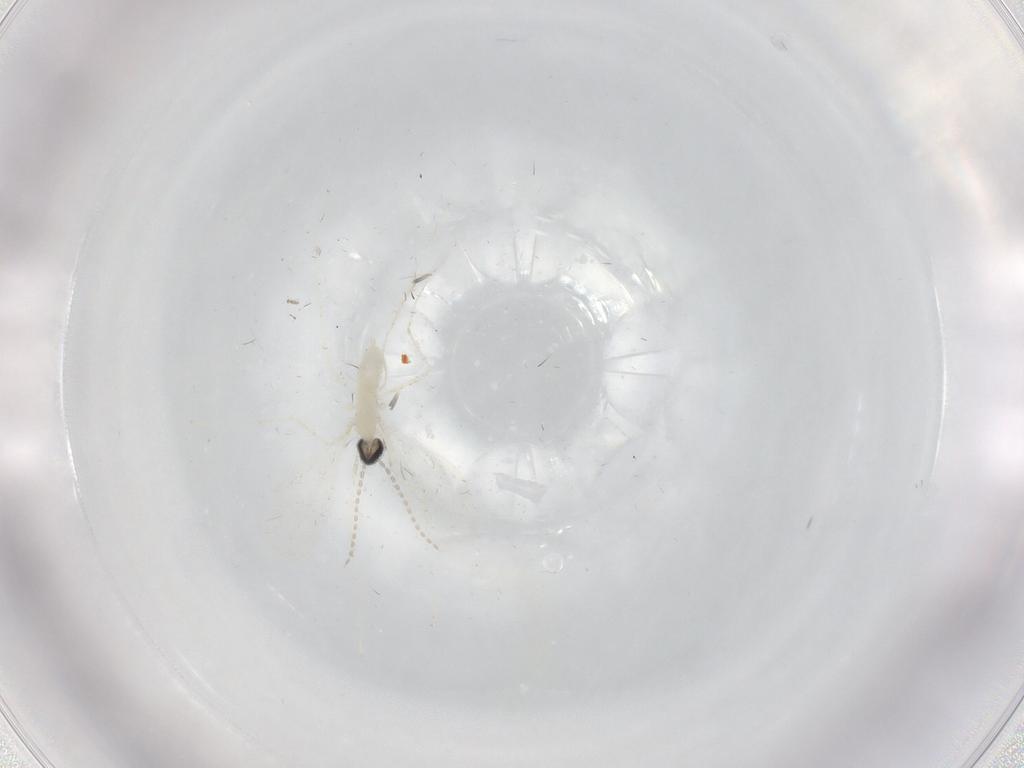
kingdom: Animalia
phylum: Arthropoda
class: Insecta
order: Diptera
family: Cecidomyiidae
